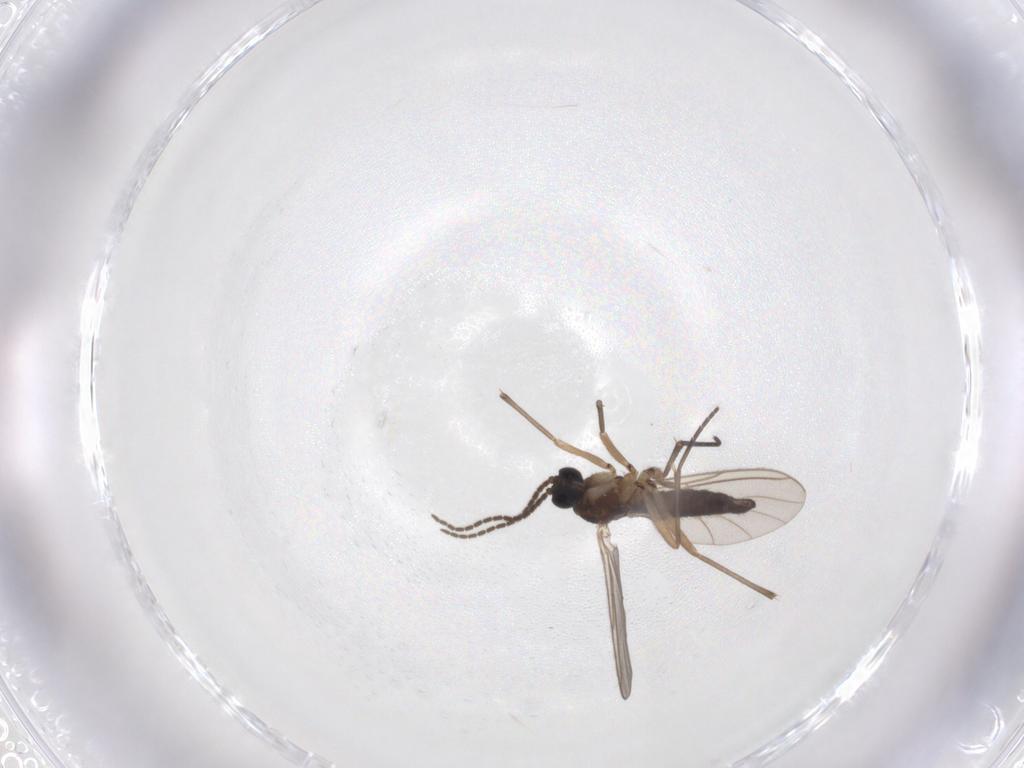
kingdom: Animalia
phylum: Arthropoda
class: Insecta
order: Diptera
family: Sciaridae
